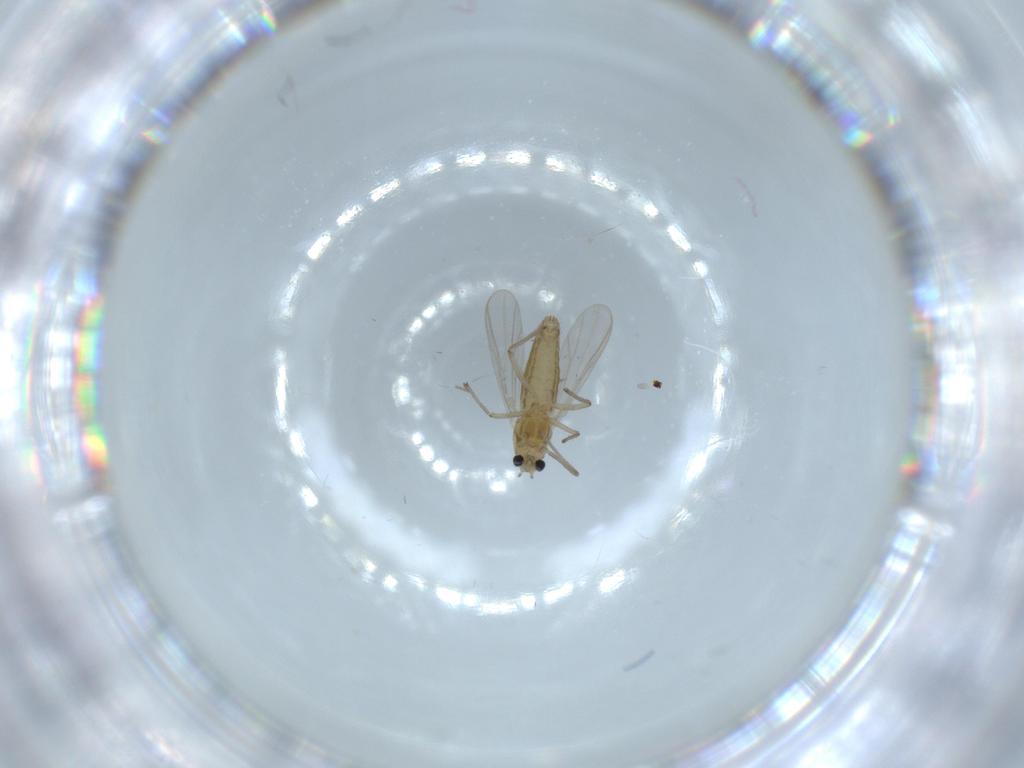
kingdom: Animalia
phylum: Arthropoda
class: Insecta
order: Diptera
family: Chironomidae
